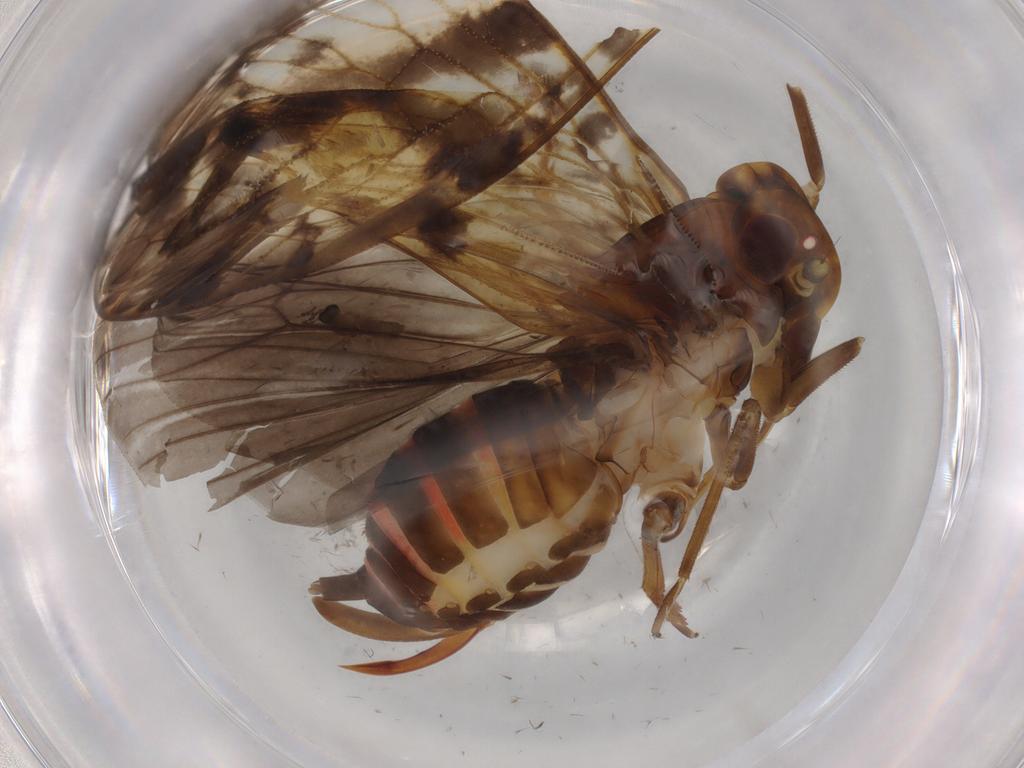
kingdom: Animalia
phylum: Arthropoda
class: Insecta
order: Hemiptera
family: Cixiidae
